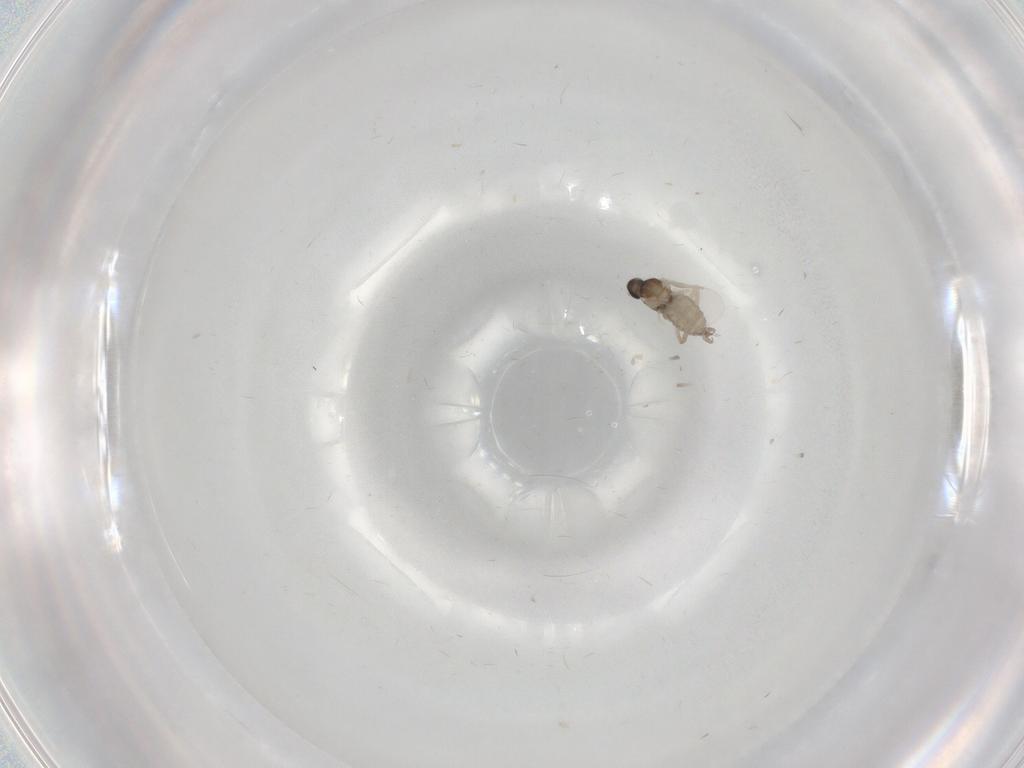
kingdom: Animalia
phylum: Arthropoda
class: Insecta
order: Diptera
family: Cecidomyiidae
